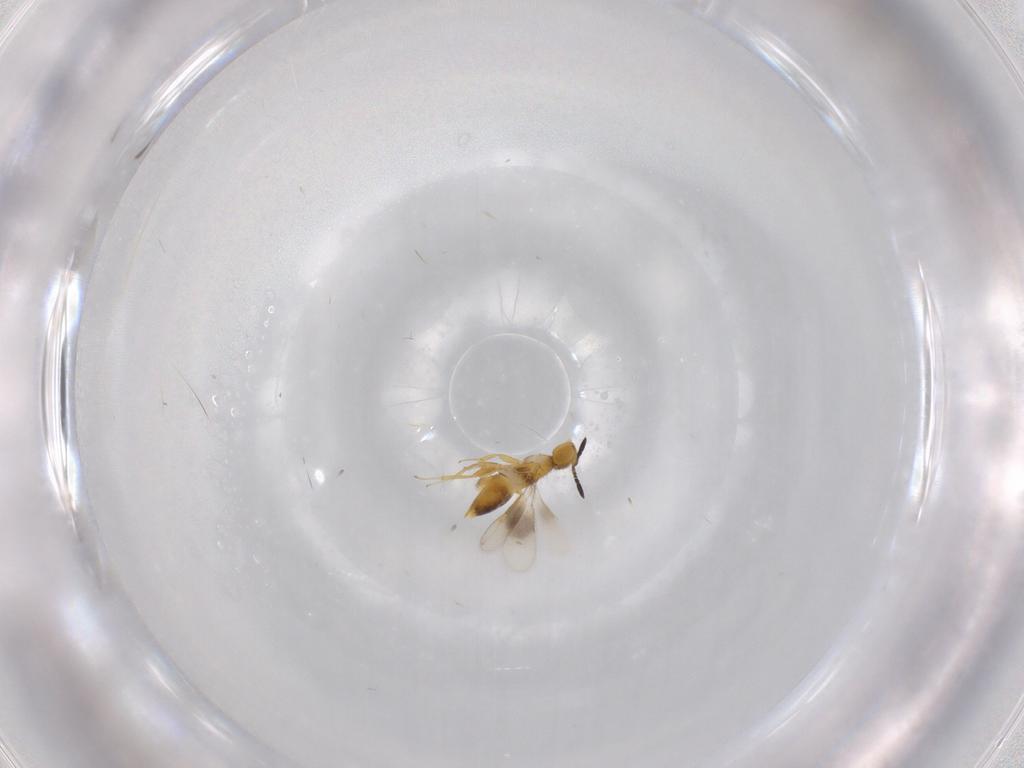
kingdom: Animalia
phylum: Arthropoda
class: Insecta
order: Hymenoptera
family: Encyrtidae
